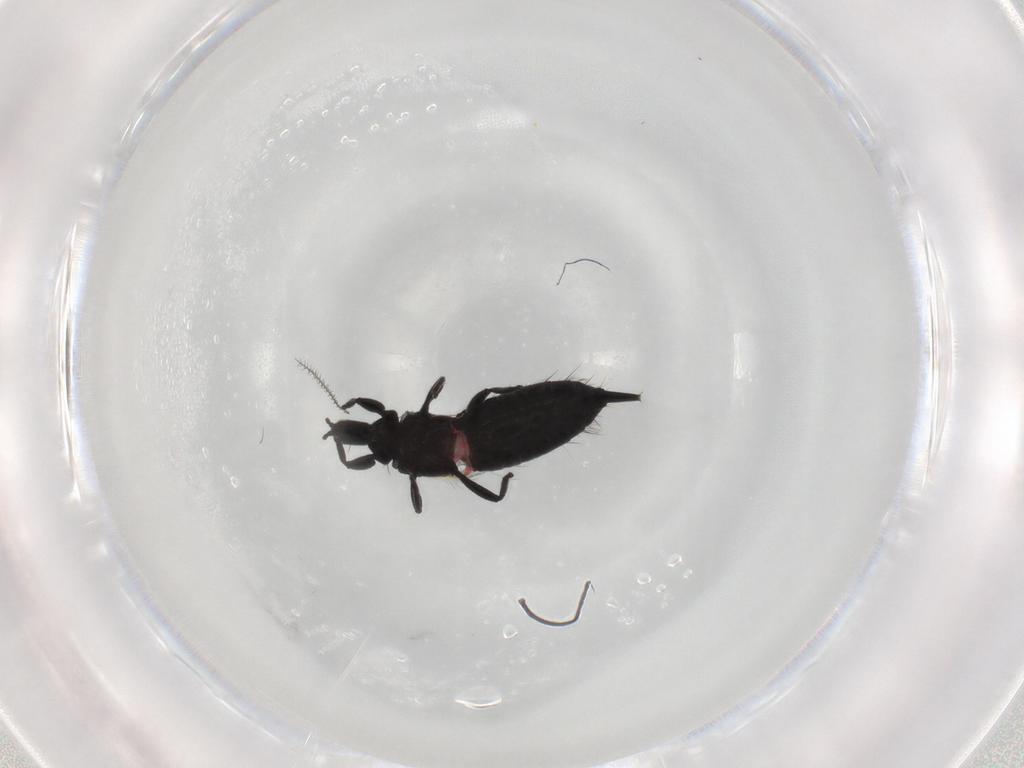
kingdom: Animalia
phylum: Arthropoda
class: Insecta
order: Thysanoptera
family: Phlaeothripidae
